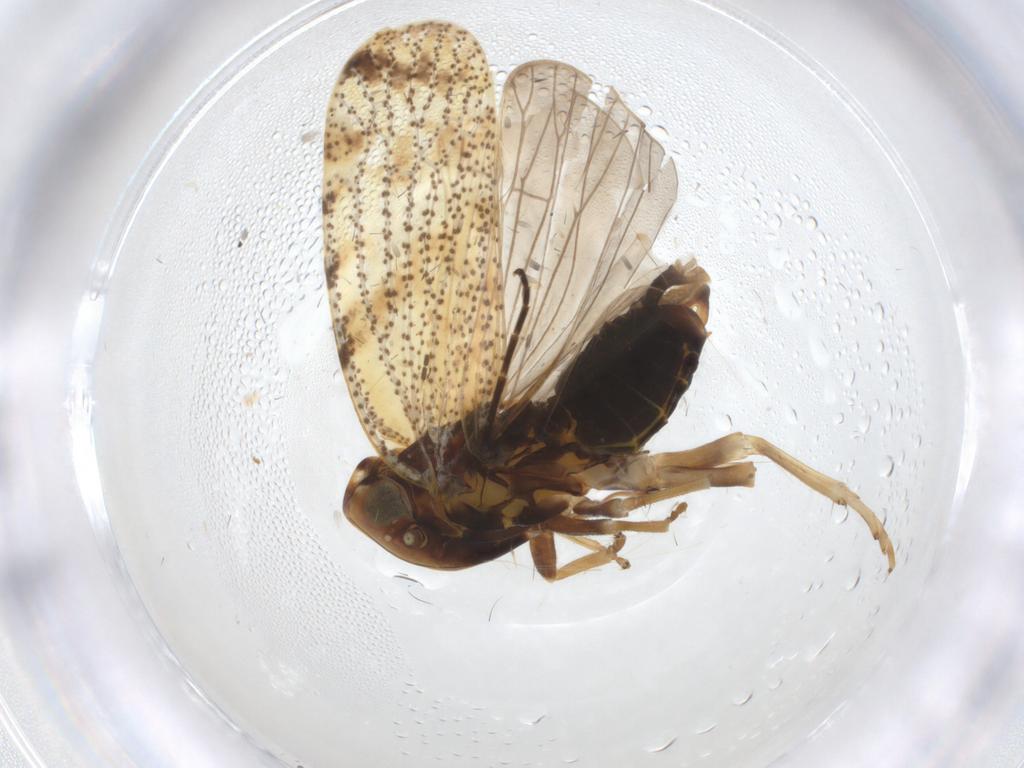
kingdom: Animalia
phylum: Arthropoda
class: Insecta
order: Hemiptera
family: Cixiidae
